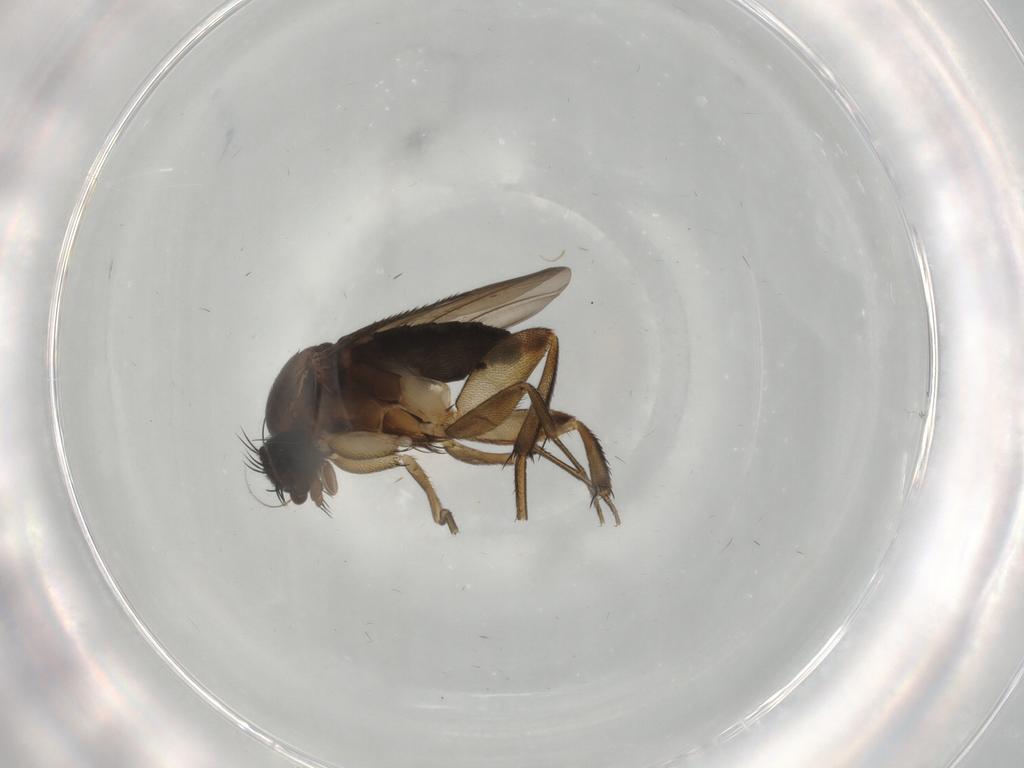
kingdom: Animalia
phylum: Arthropoda
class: Insecta
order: Diptera
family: Phoridae
